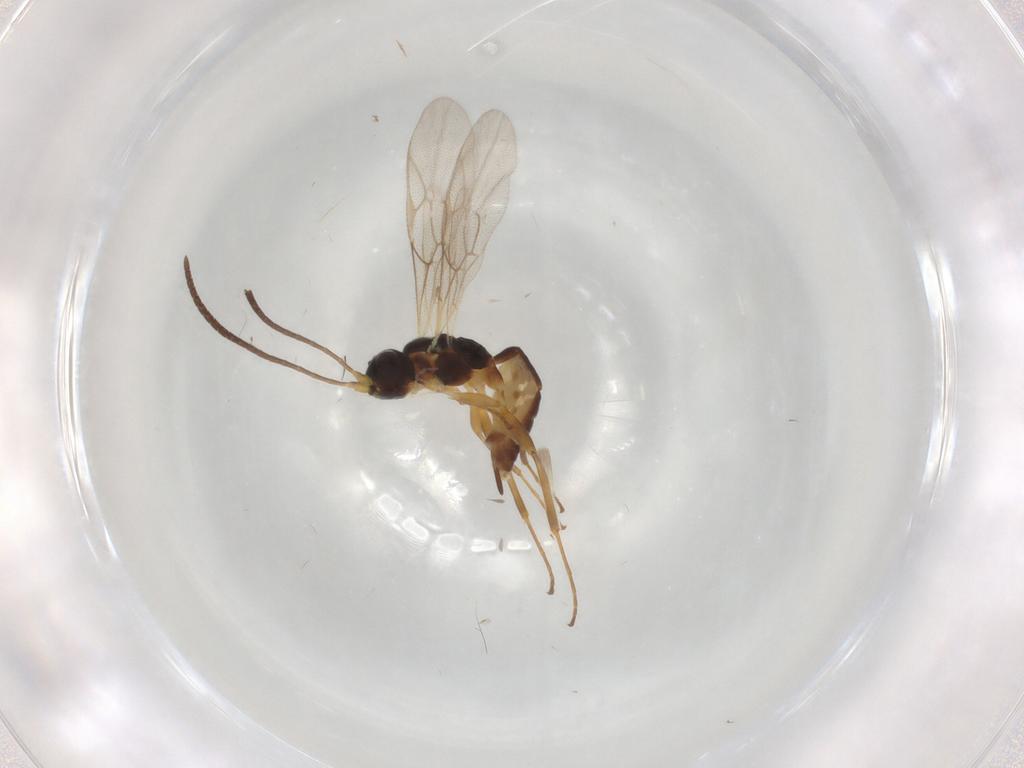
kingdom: Animalia
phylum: Arthropoda
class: Insecta
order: Hymenoptera
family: Ichneumonidae
